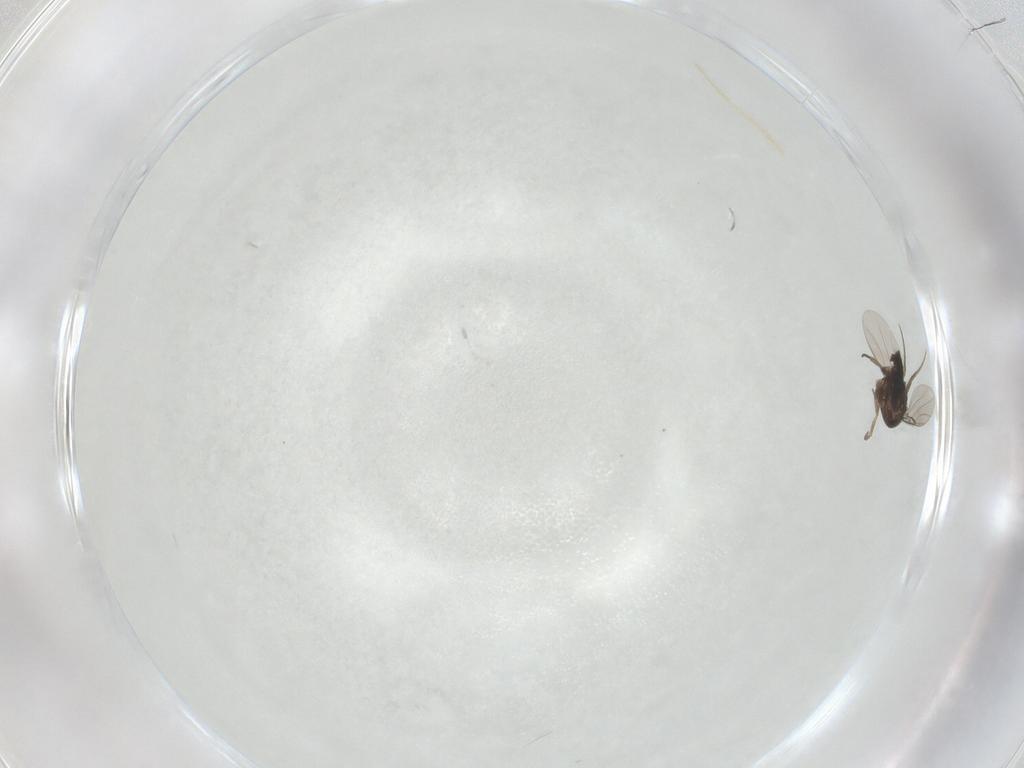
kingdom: Animalia
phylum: Arthropoda
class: Insecta
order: Diptera
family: Phoridae
